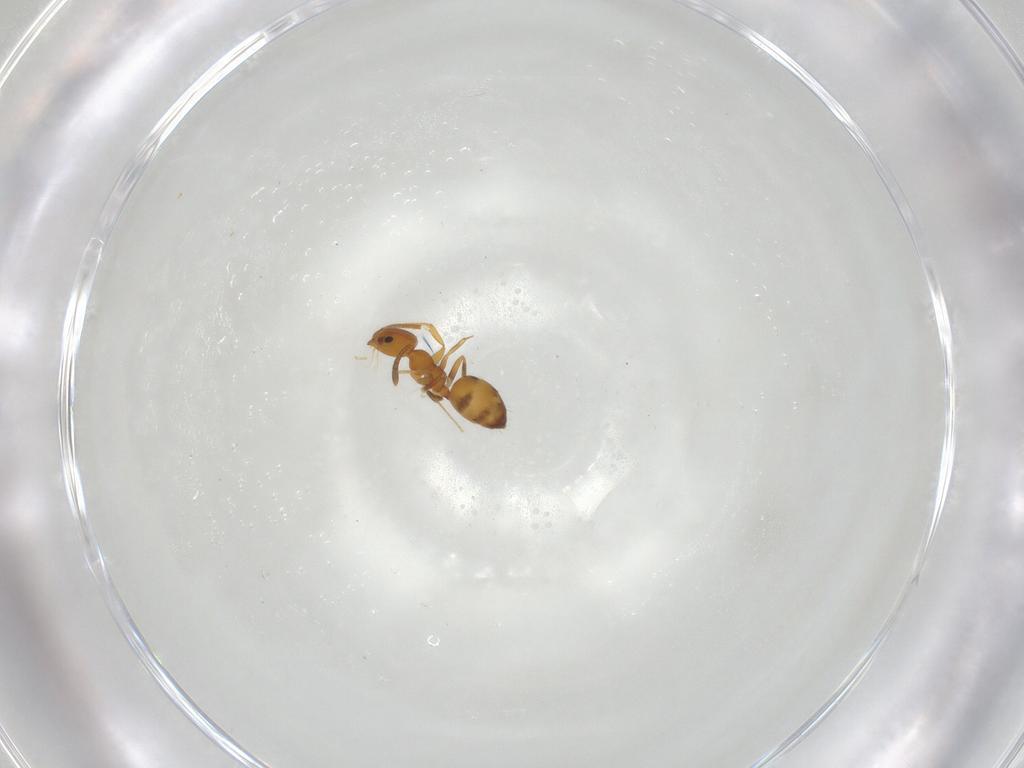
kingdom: Animalia
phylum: Arthropoda
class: Insecta
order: Hymenoptera
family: Formicidae
